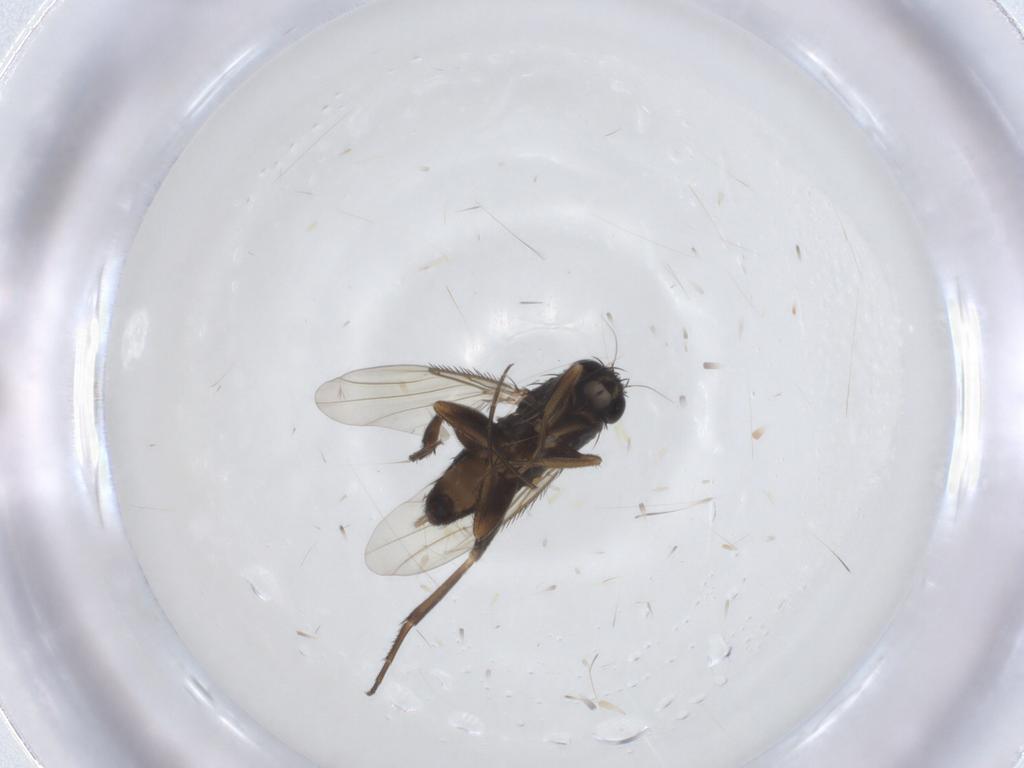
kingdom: Animalia
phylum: Arthropoda
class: Insecta
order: Diptera
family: Phoridae
